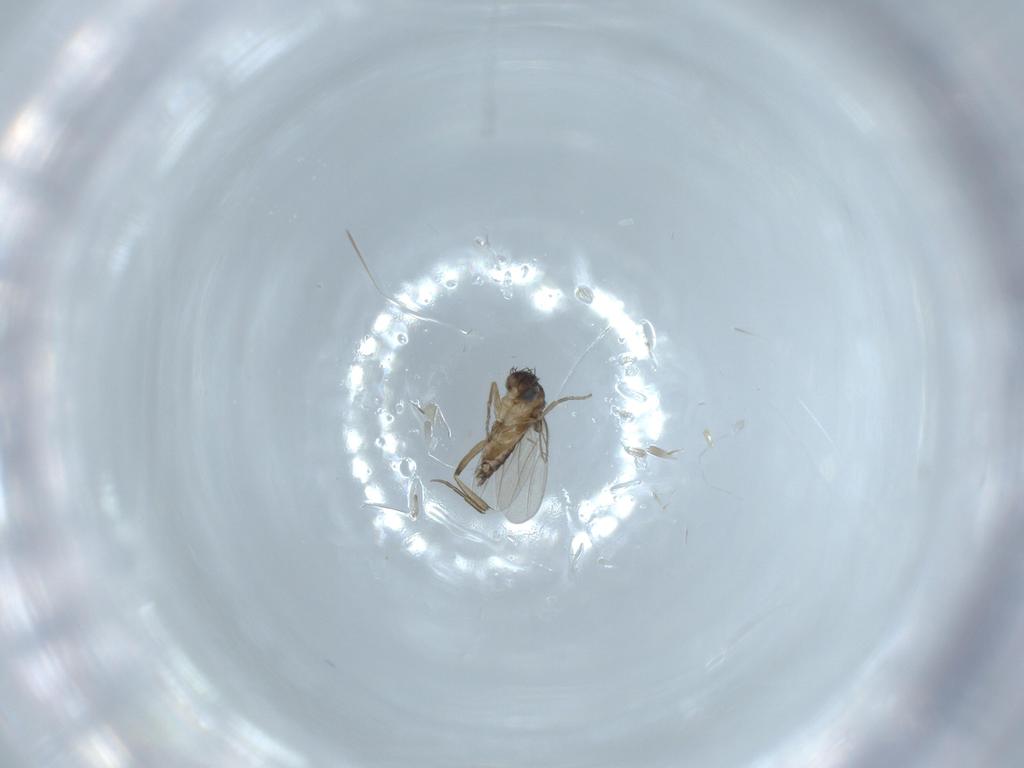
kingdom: Animalia
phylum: Arthropoda
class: Insecta
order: Diptera
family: Phoridae
